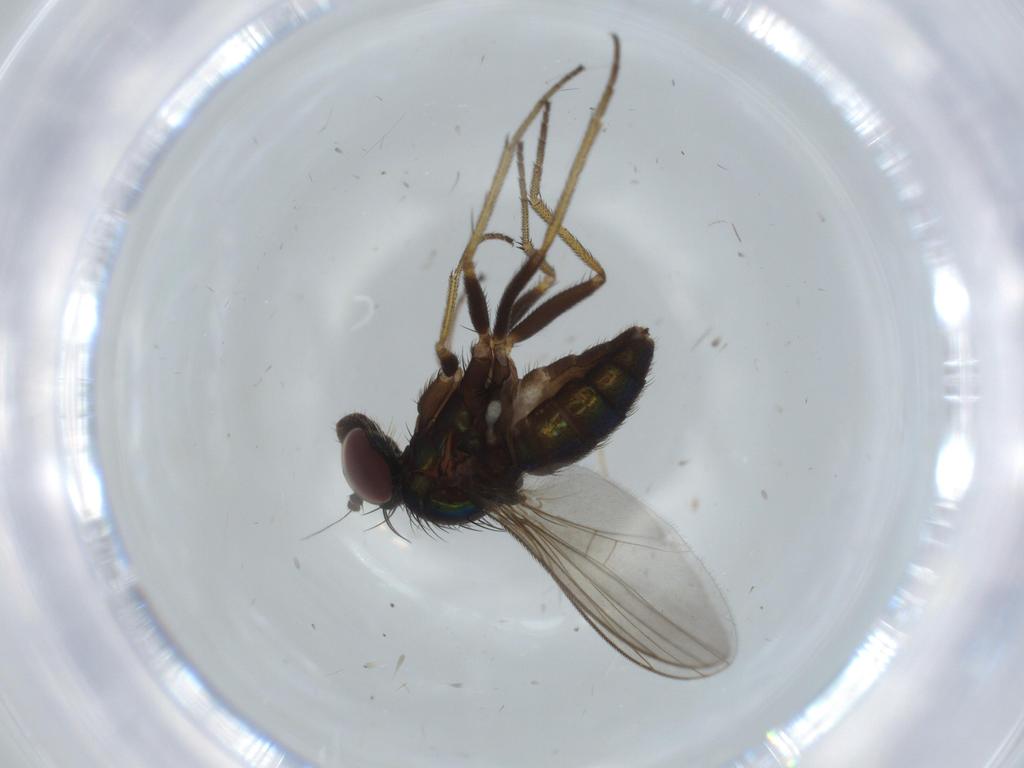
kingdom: Animalia
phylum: Arthropoda
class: Insecta
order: Diptera
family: Dolichopodidae
